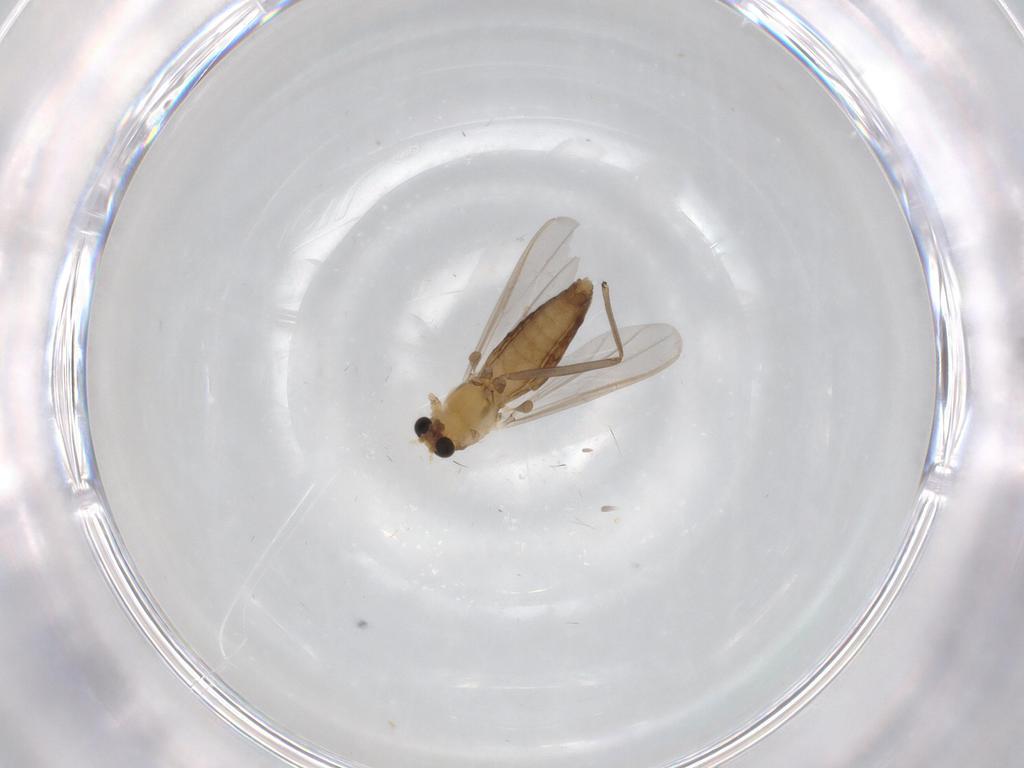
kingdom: Animalia
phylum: Arthropoda
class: Insecta
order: Diptera
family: Chironomidae
